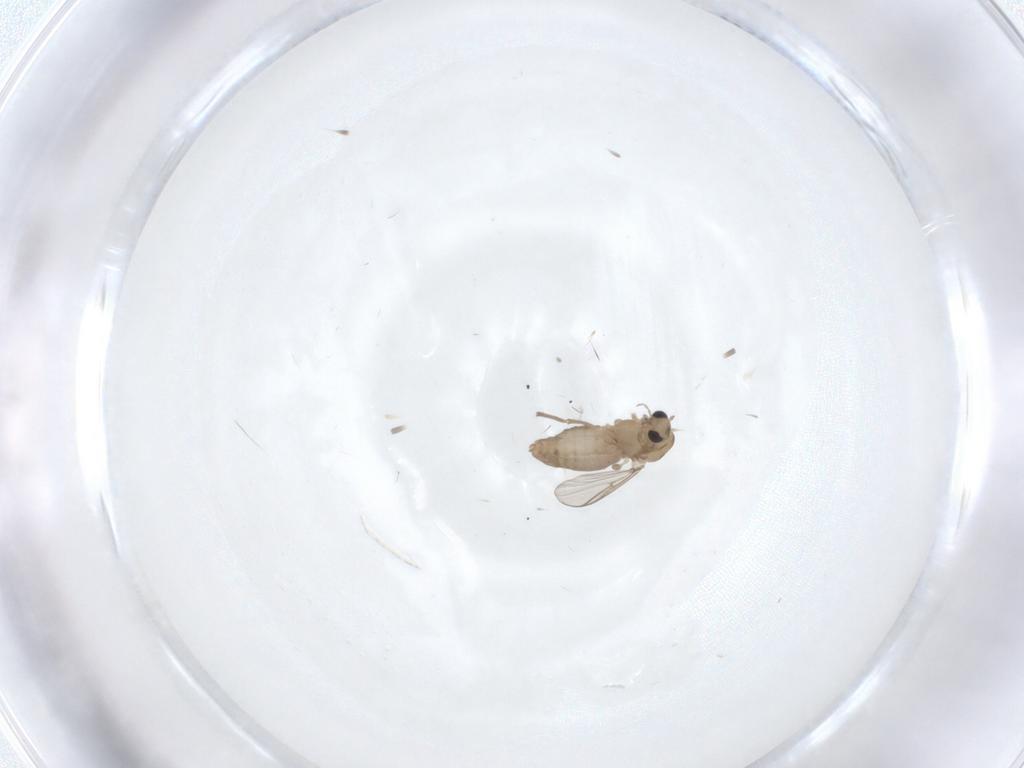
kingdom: Animalia
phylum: Arthropoda
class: Insecta
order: Diptera
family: Chironomidae
